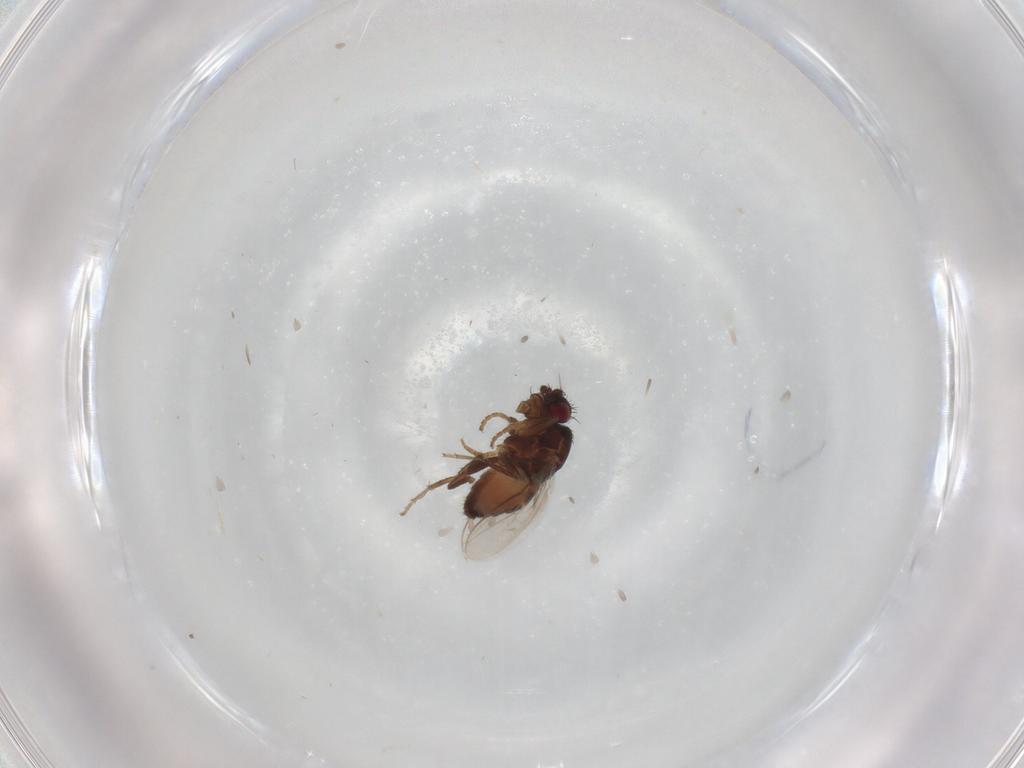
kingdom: Animalia
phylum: Arthropoda
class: Insecta
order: Diptera
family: Sphaeroceridae
